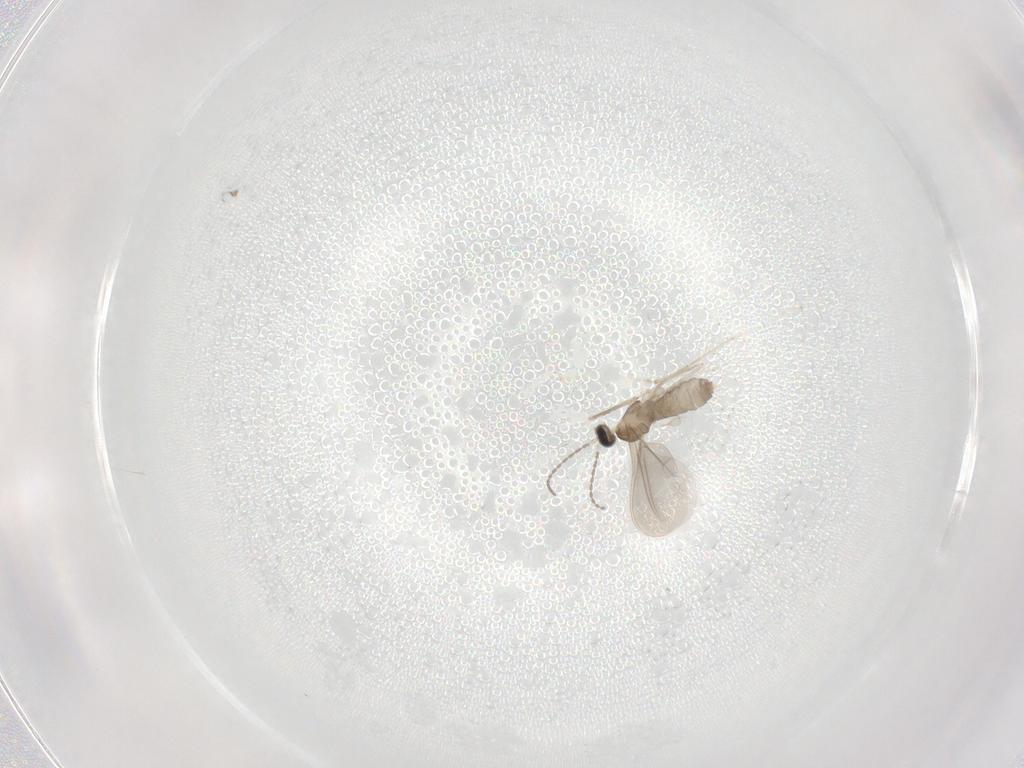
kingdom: Animalia
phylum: Arthropoda
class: Insecta
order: Diptera
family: Cecidomyiidae
